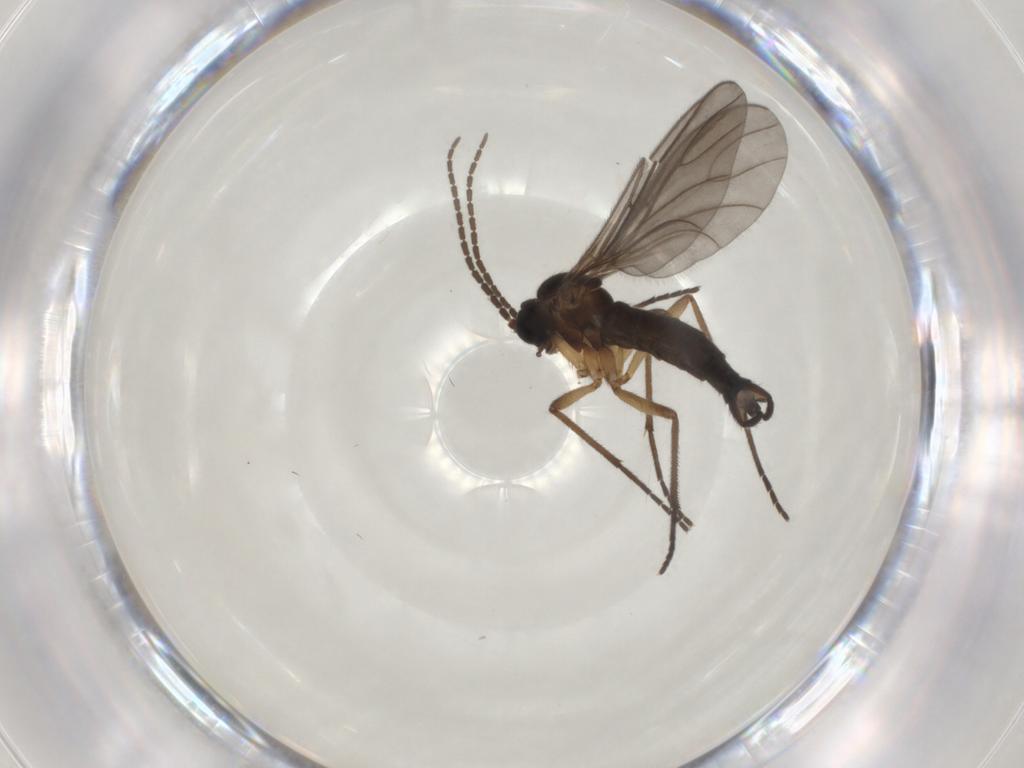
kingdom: Animalia
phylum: Arthropoda
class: Insecta
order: Diptera
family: Sciaridae
